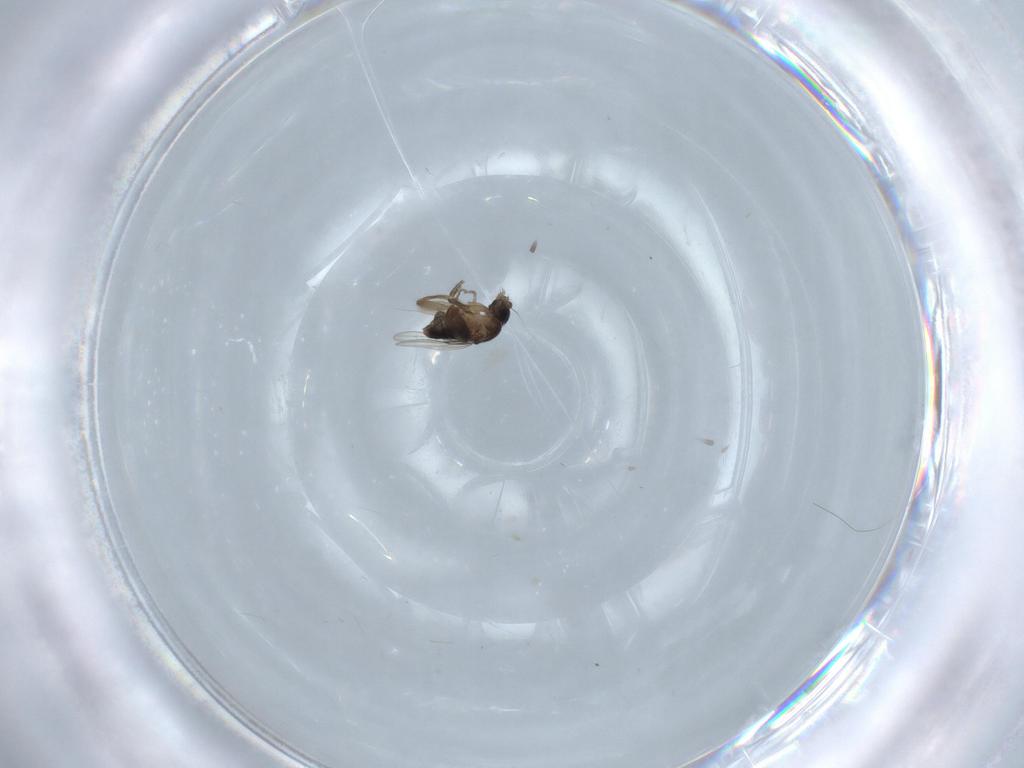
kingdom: Animalia
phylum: Arthropoda
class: Insecta
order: Diptera
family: Phoridae
